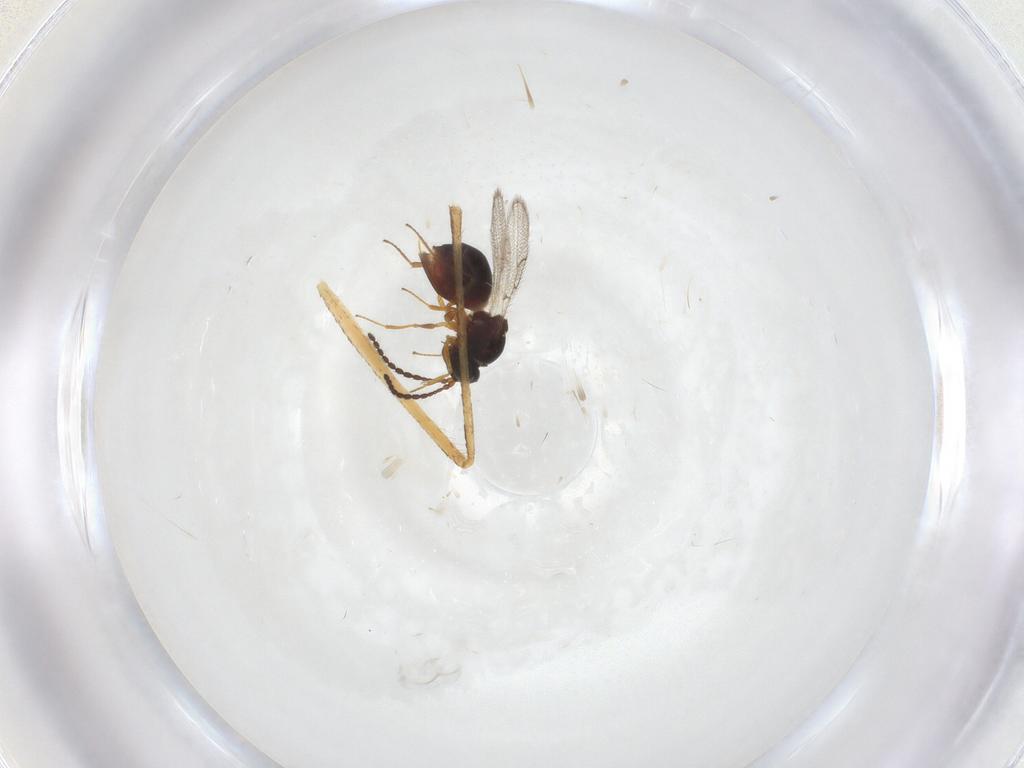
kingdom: Animalia
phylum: Arthropoda
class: Insecta
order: Hymenoptera
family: Figitidae
